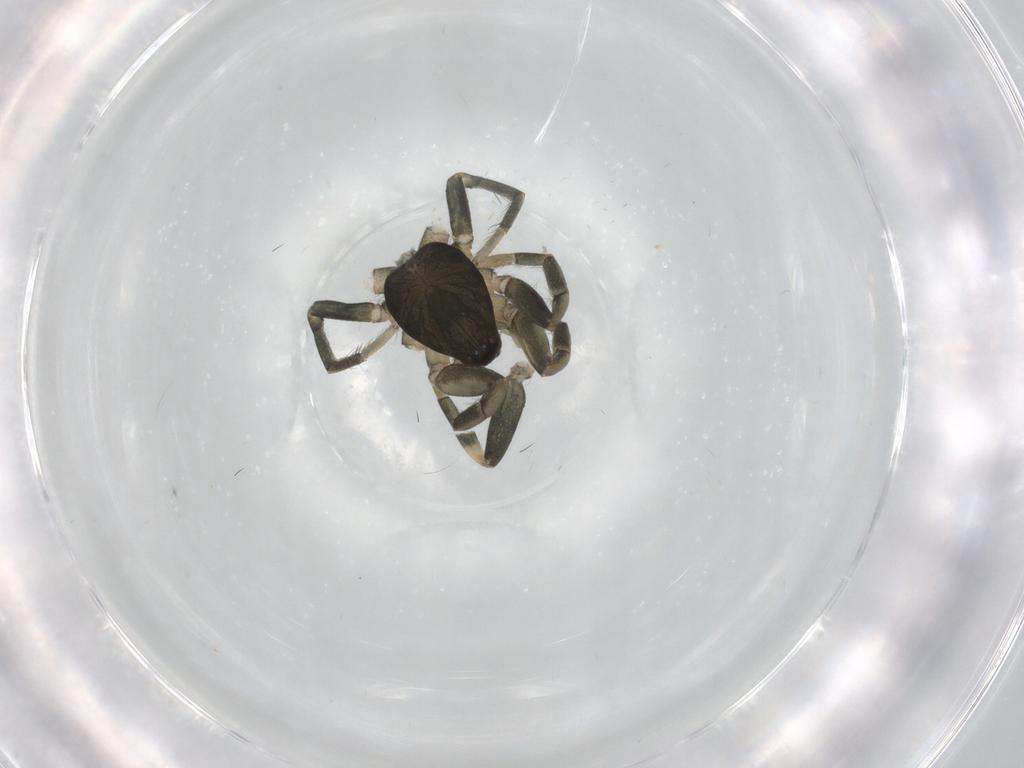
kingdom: Animalia
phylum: Arthropoda
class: Arachnida
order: Araneae
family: Gnaphosidae
